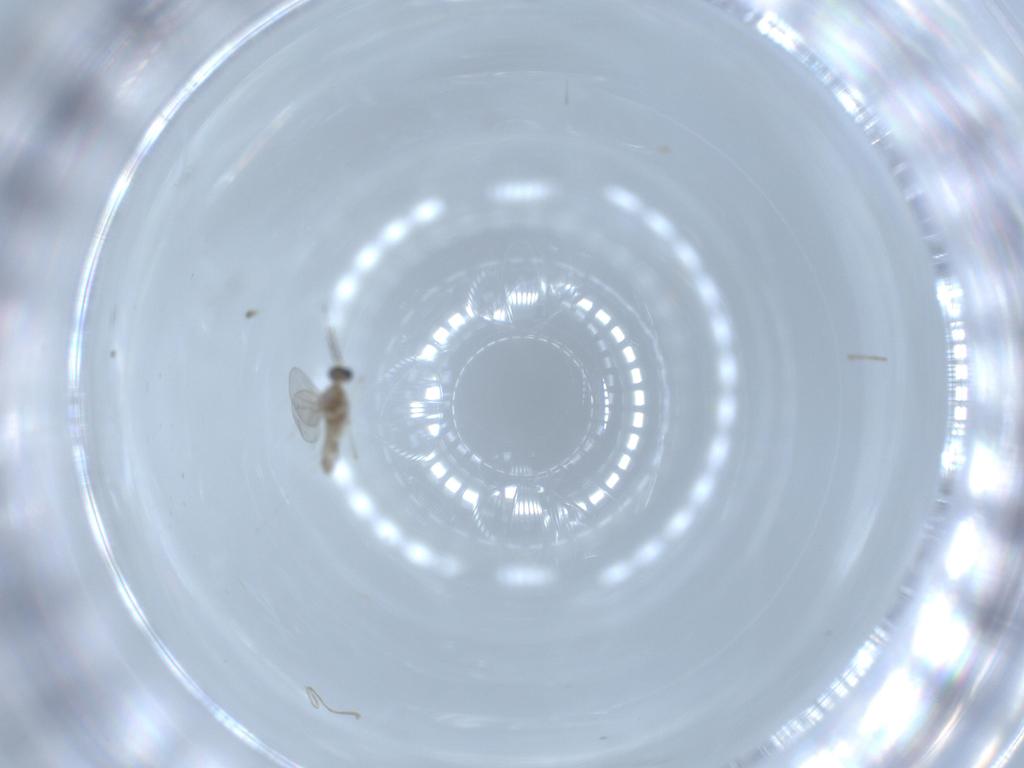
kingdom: Animalia
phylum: Arthropoda
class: Insecta
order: Diptera
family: Cecidomyiidae
